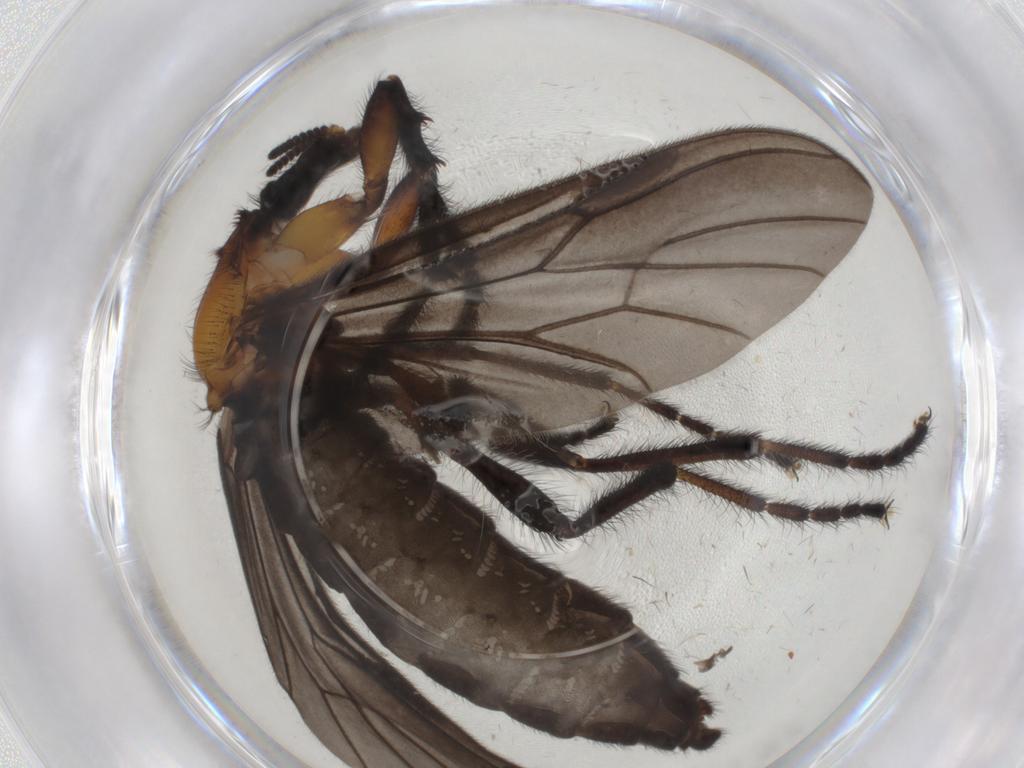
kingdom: Animalia
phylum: Arthropoda
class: Insecta
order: Diptera
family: Bibionidae
